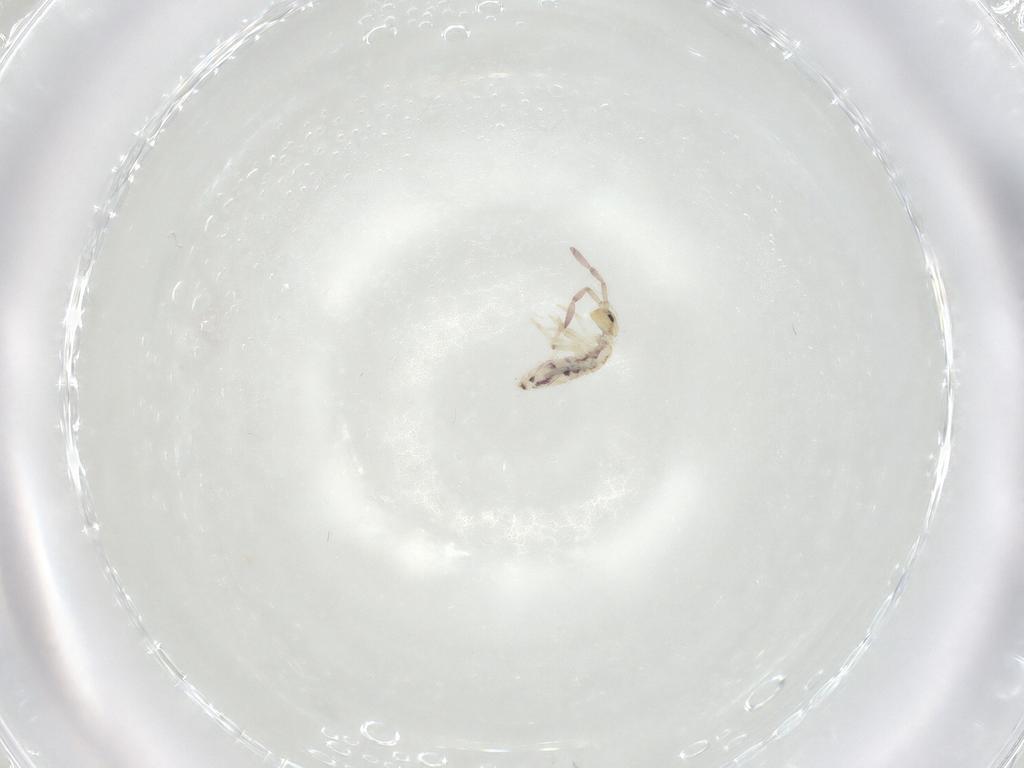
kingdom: Animalia
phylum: Arthropoda
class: Collembola
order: Entomobryomorpha
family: Entomobryidae
